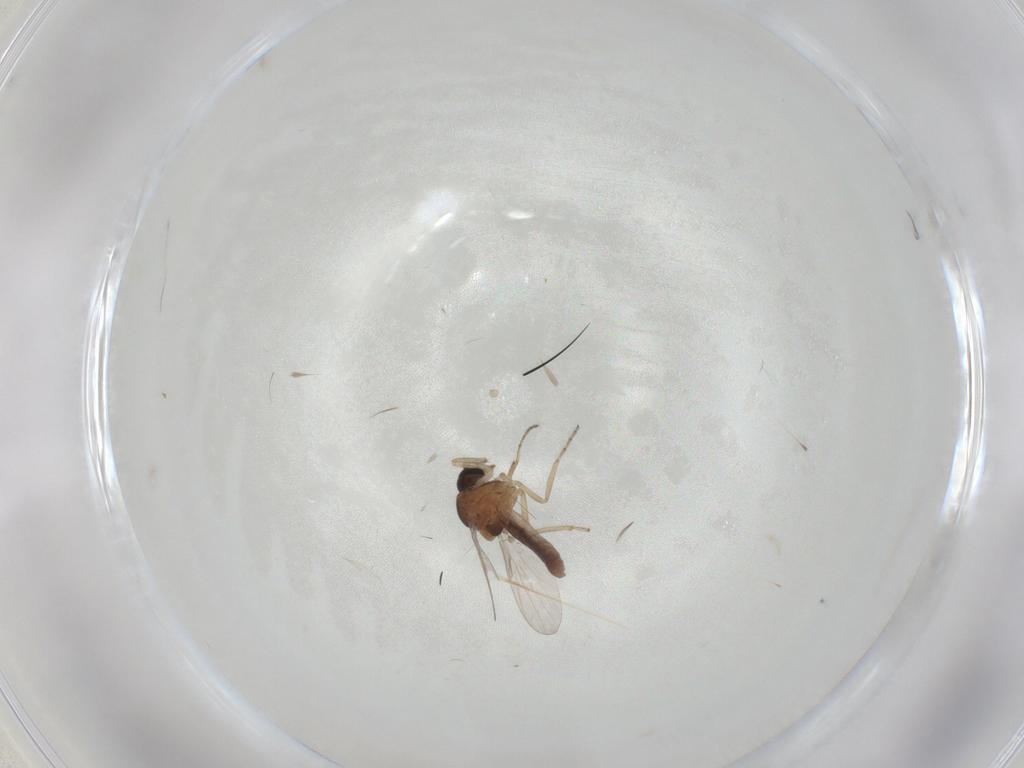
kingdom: Animalia
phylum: Arthropoda
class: Insecta
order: Diptera
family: Ceratopogonidae
